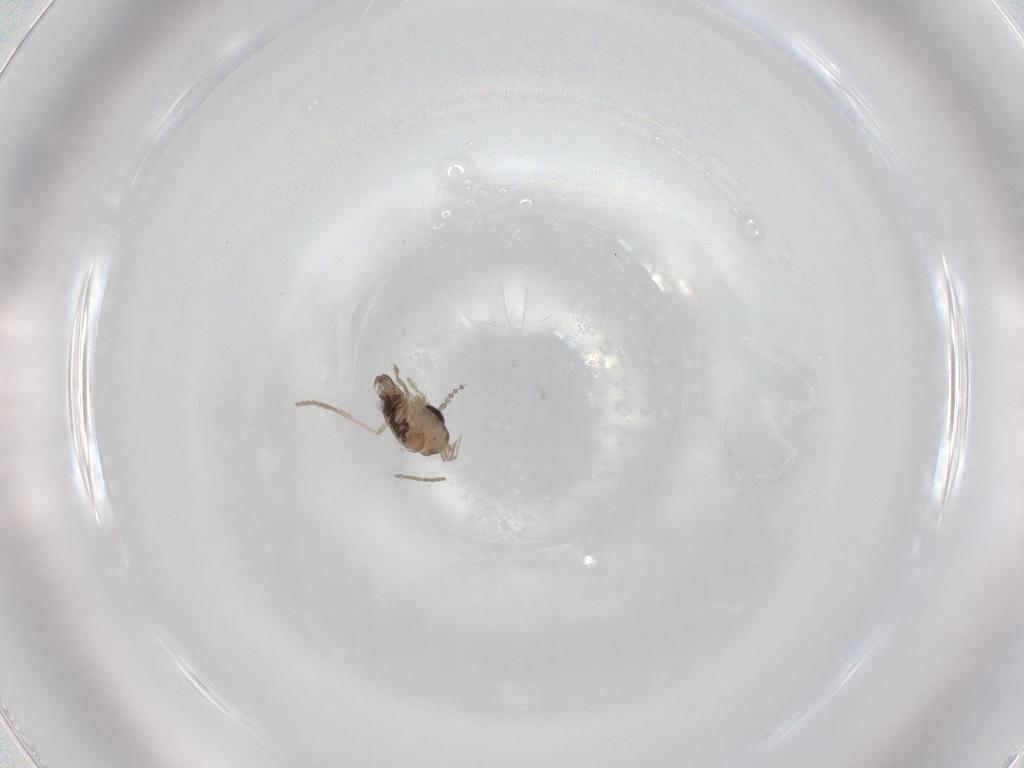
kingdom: Animalia
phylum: Arthropoda
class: Insecta
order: Diptera
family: Psychodidae
